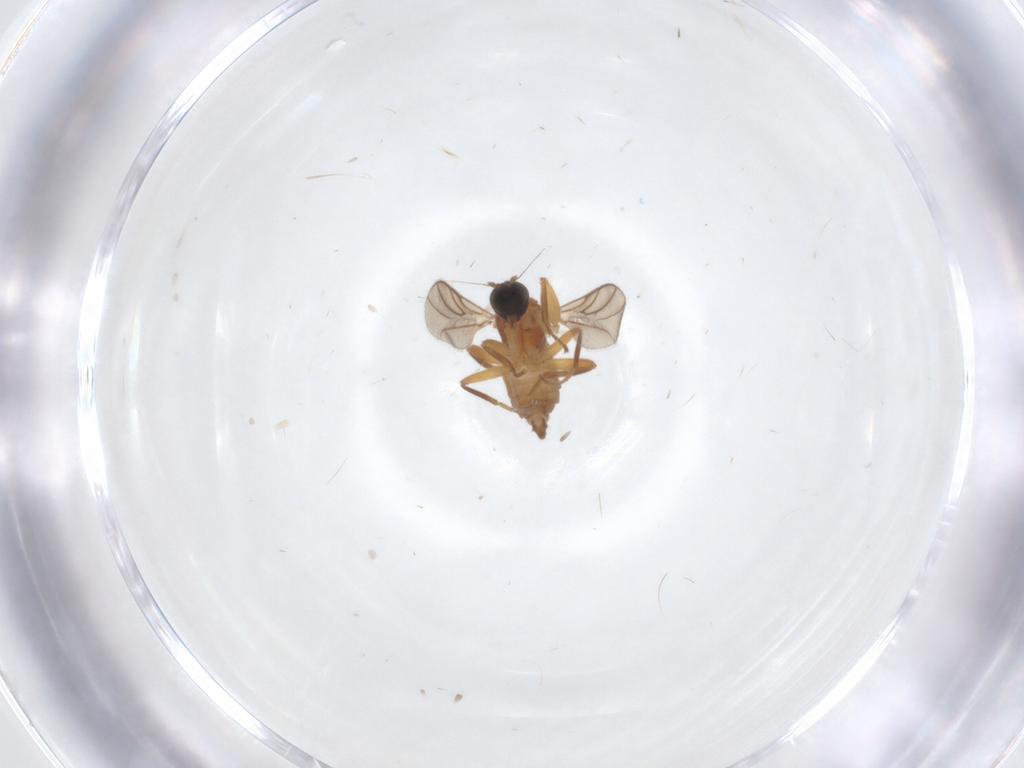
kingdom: Animalia
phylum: Arthropoda
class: Insecta
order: Diptera
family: Hybotidae
